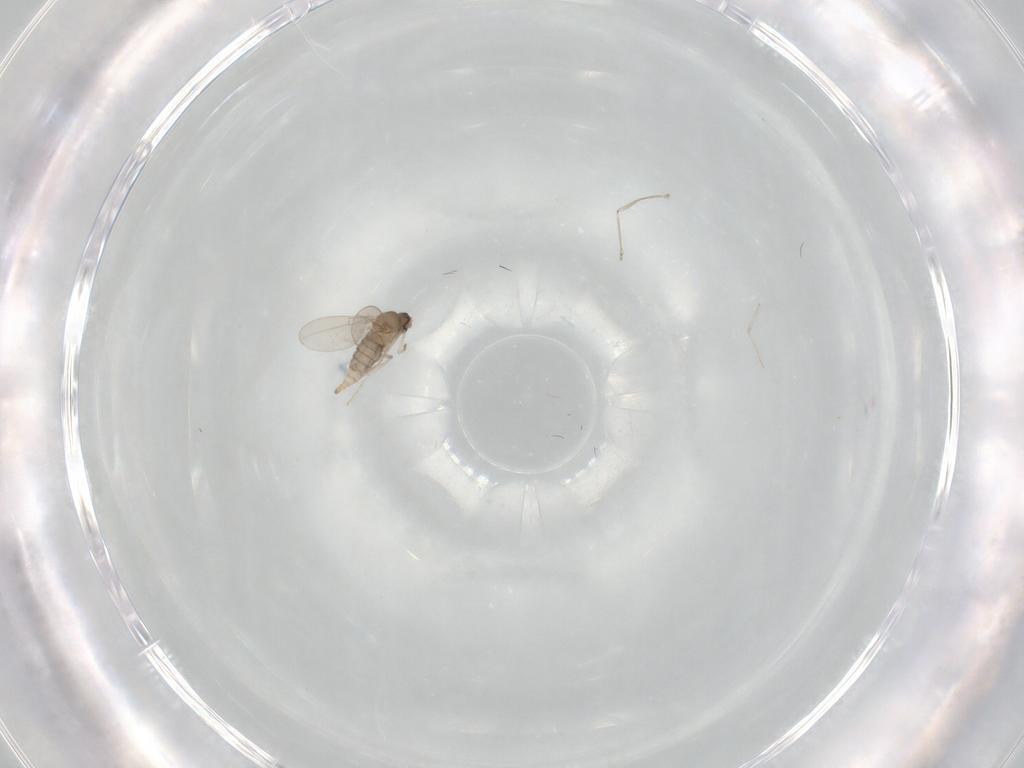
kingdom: Animalia
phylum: Arthropoda
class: Insecta
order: Diptera
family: Cecidomyiidae
